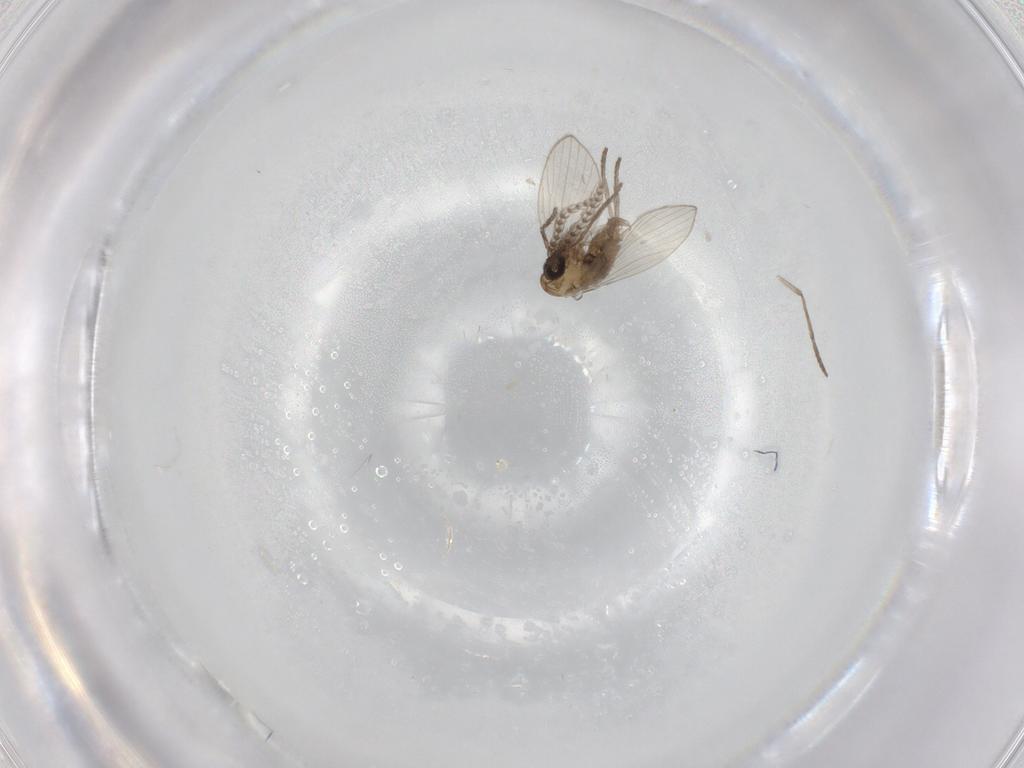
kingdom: Animalia
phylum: Arthropoda
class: Insecta
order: Diptera
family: Psychodidae
